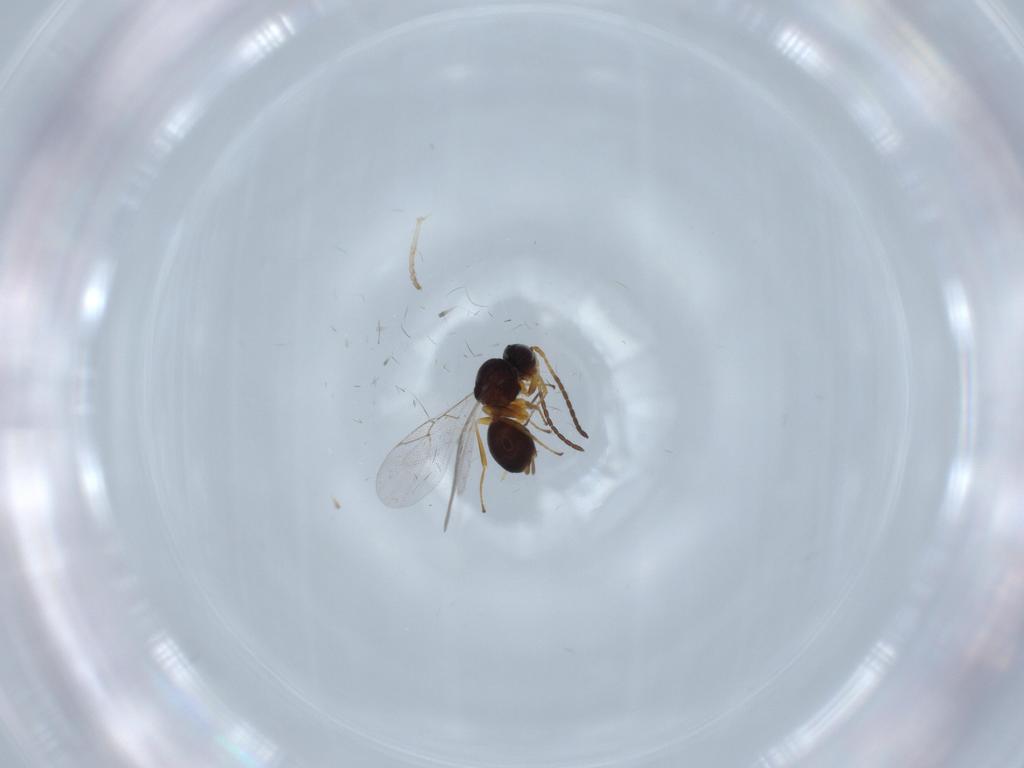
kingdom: Animalia
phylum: Arthropoda
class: Insecta
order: Hymenoptera
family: Figitidae
